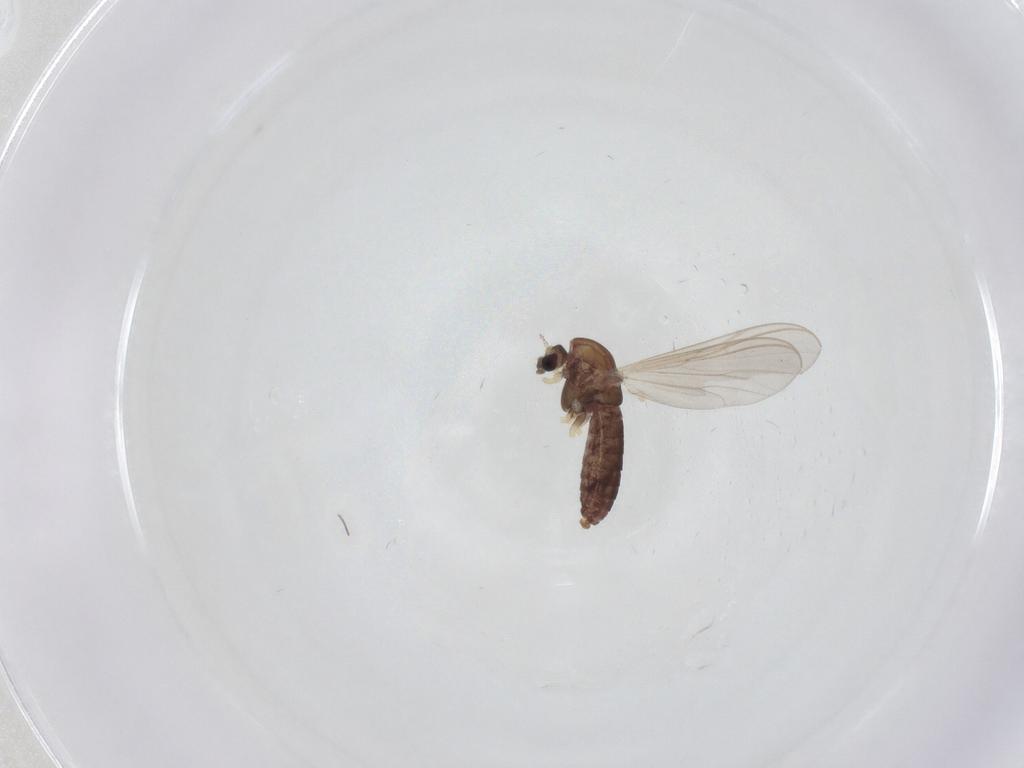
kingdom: Animalia
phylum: Arthropoda
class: Insecta
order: Diptera
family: Chironomidae
